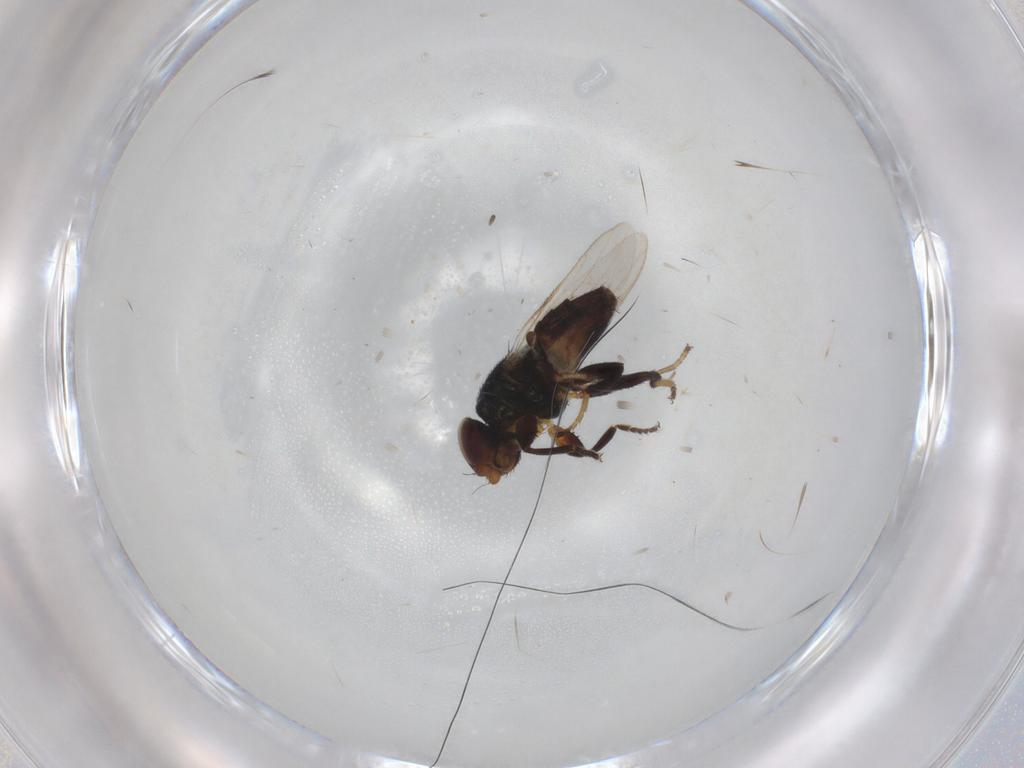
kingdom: Animalia
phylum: Arthropoda
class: Insecta
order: Diptera
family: Chloropidae
